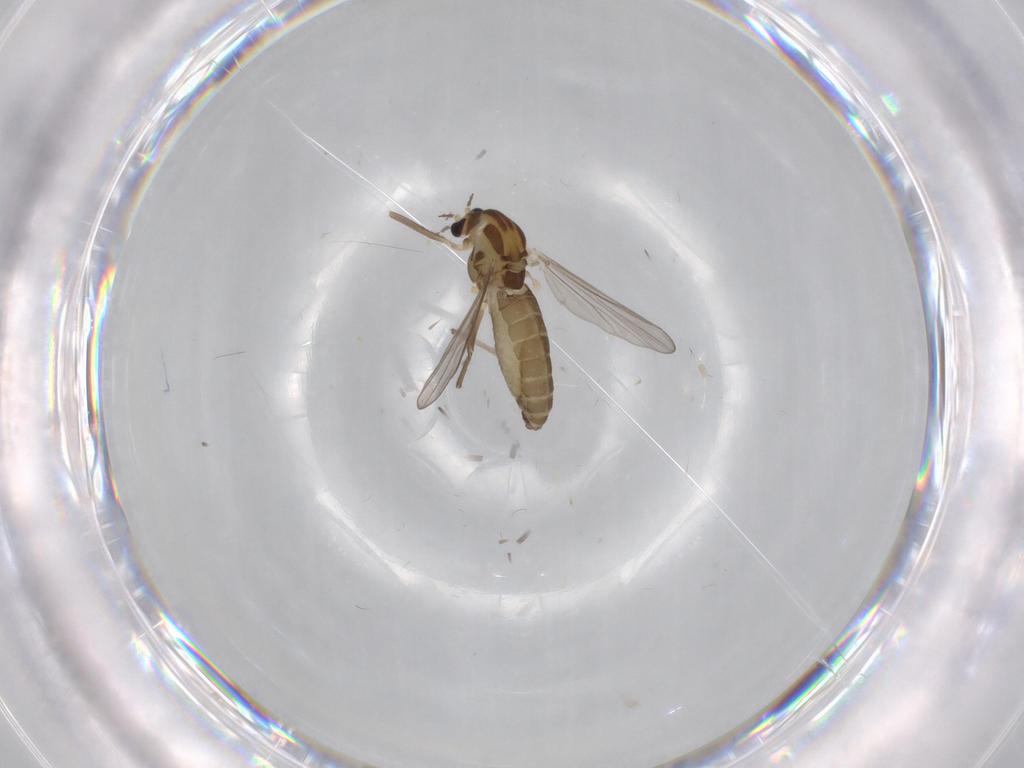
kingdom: Animalia
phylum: Arthropoda
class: Insecta
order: Diptera
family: Chironomidae
